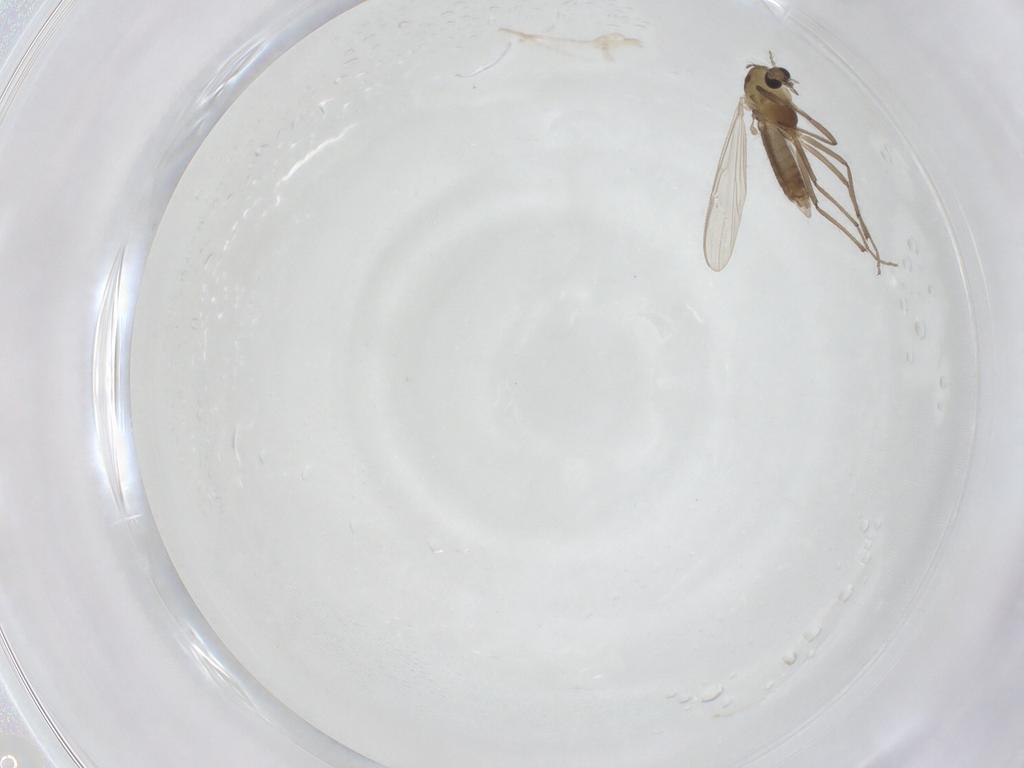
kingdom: Animalia
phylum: Arthropoda
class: Insecta
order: Diptera
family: Chironomidae
